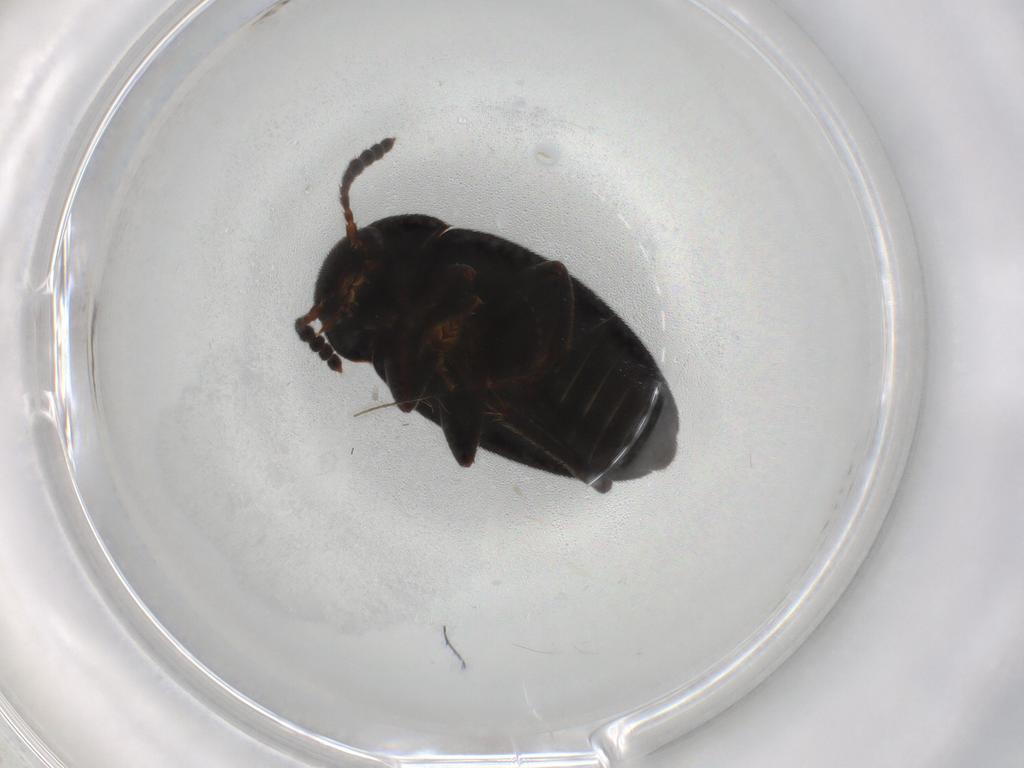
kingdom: Animalia
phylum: Arthropoda
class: Insecta
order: Coleoptera
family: Leiodidae
